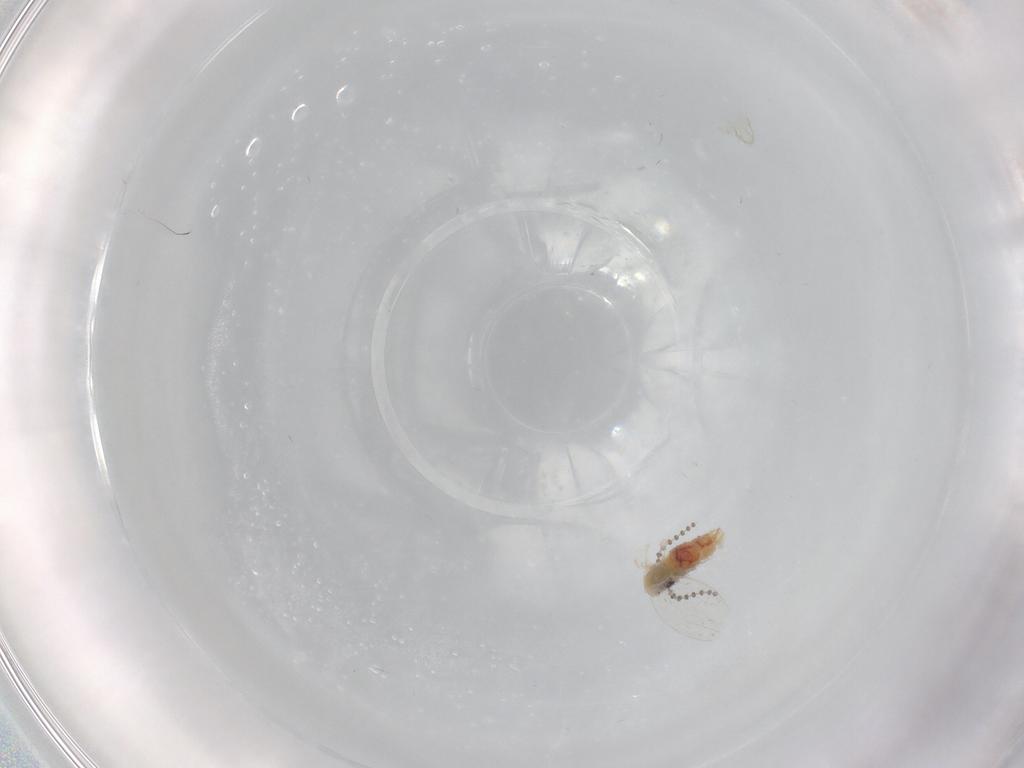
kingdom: Animalia
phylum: Arthropoda
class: Insecta
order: Diptera
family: Psychodidae
